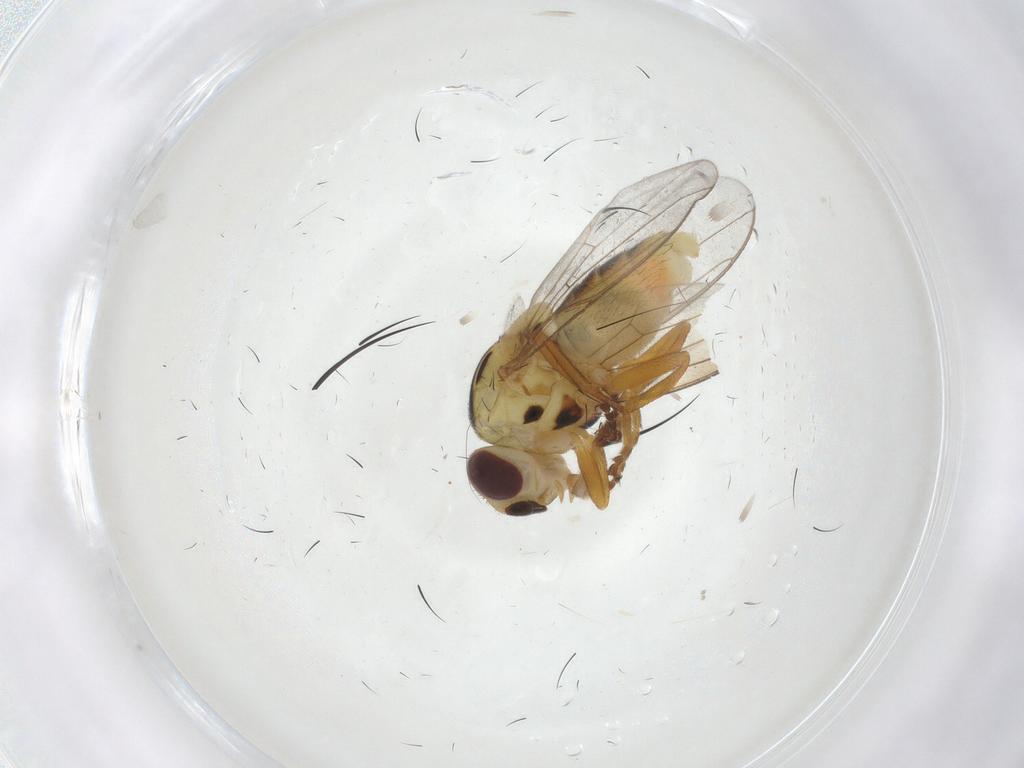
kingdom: Animalia
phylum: Arthropoda
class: Insecta
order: Diptera
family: Chloropidae
